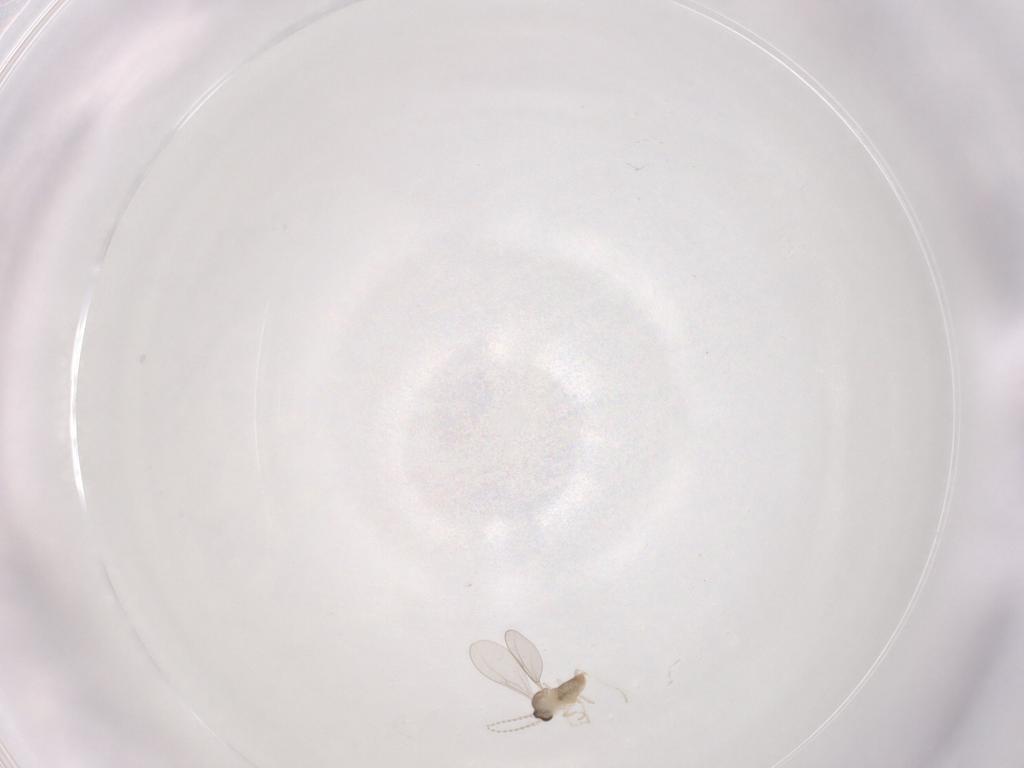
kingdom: Animalia
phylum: Arthropoda
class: Insecta
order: Diptera
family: Cecidomyiidae
